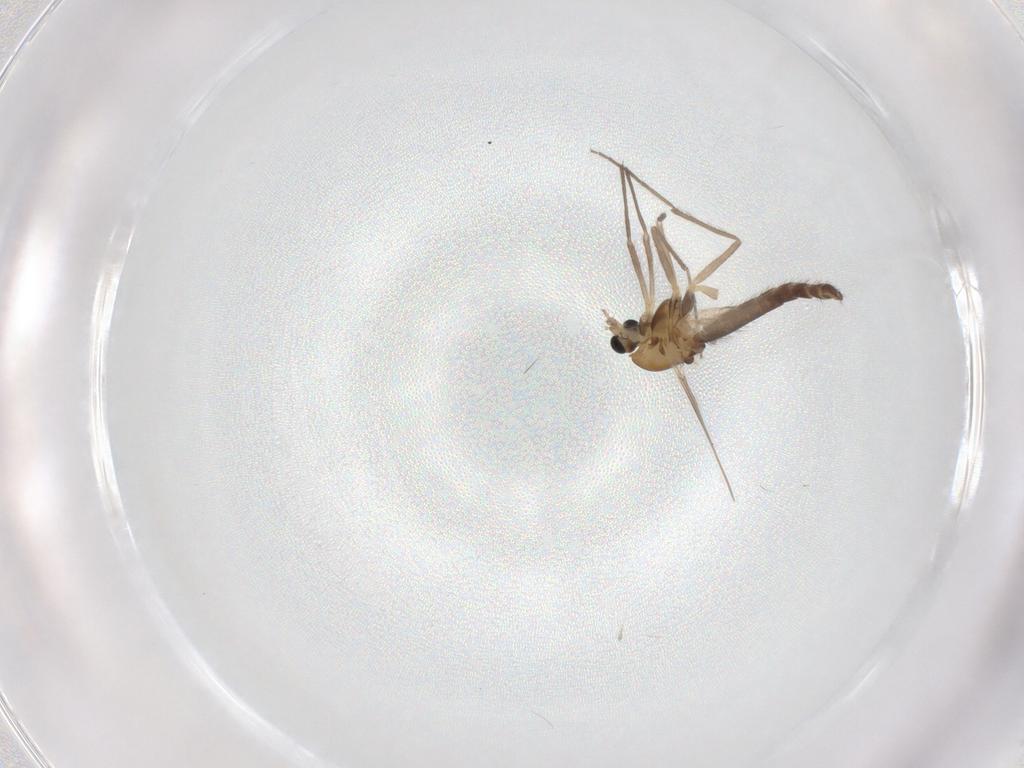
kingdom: Animalia
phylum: Arthropoda
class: Insecta
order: Diptera
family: Chironomidae
